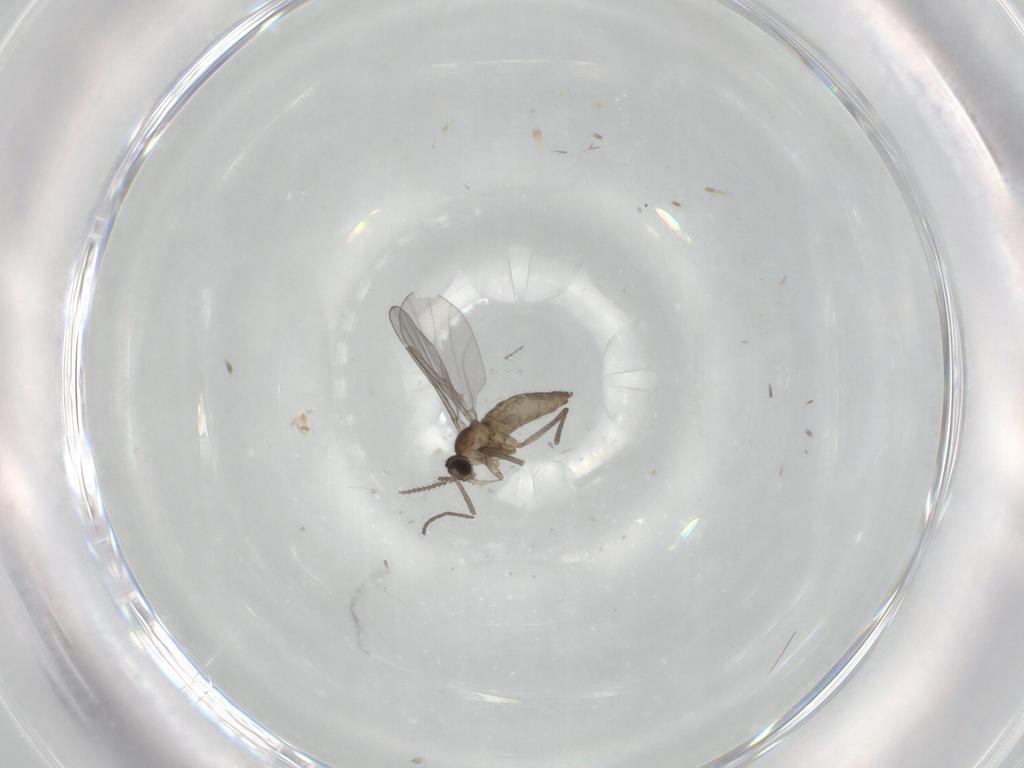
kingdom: Animalia
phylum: Arthropoda
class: Insecta
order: Diptera
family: Cecidomyiidae
